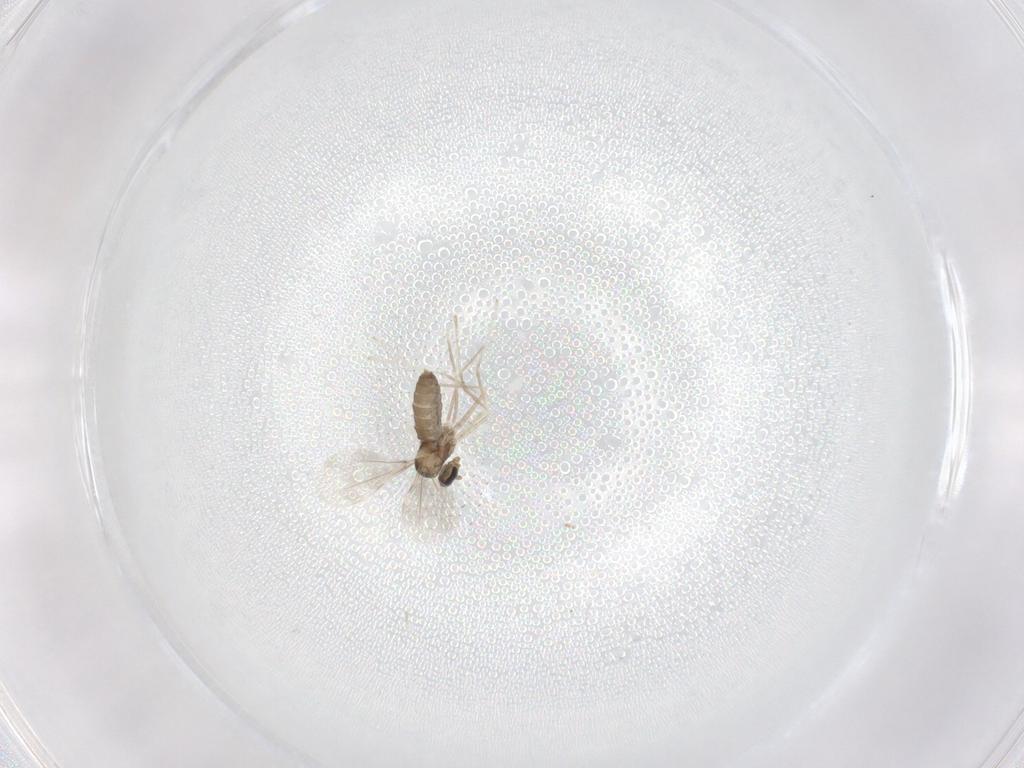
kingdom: Animalia
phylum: Arthropoda
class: Insecta
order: Diptera
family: Cecidomyiidae
